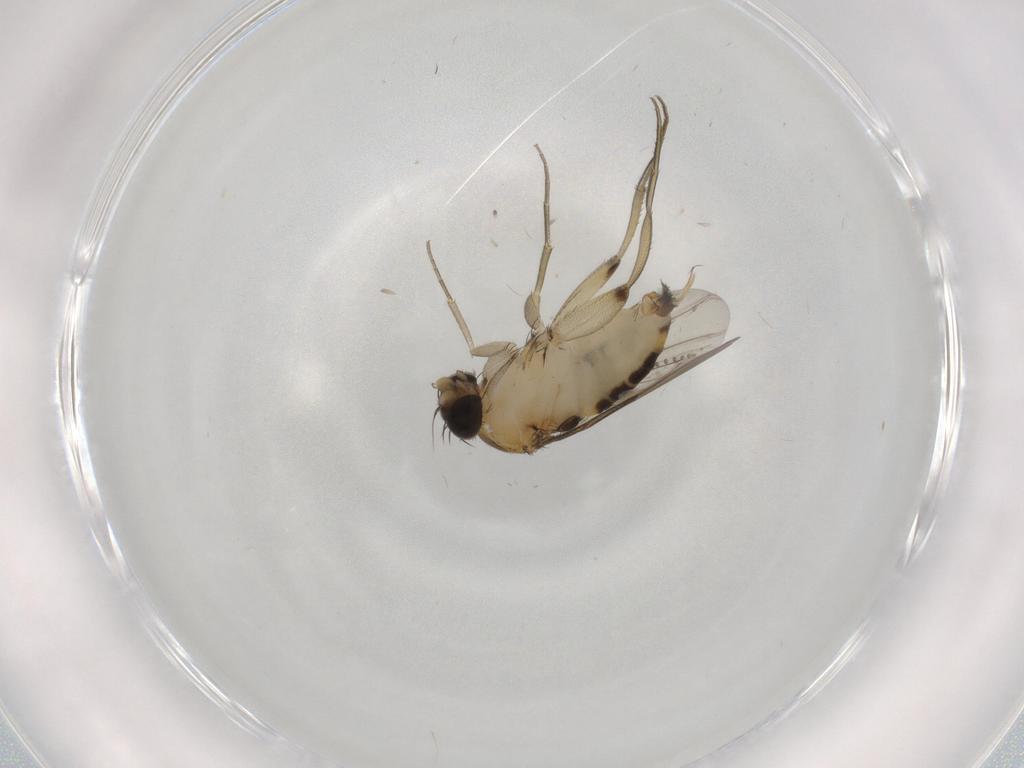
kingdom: Animalia
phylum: Arthropoda
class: Insecta
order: Diptera
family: Phoridae
